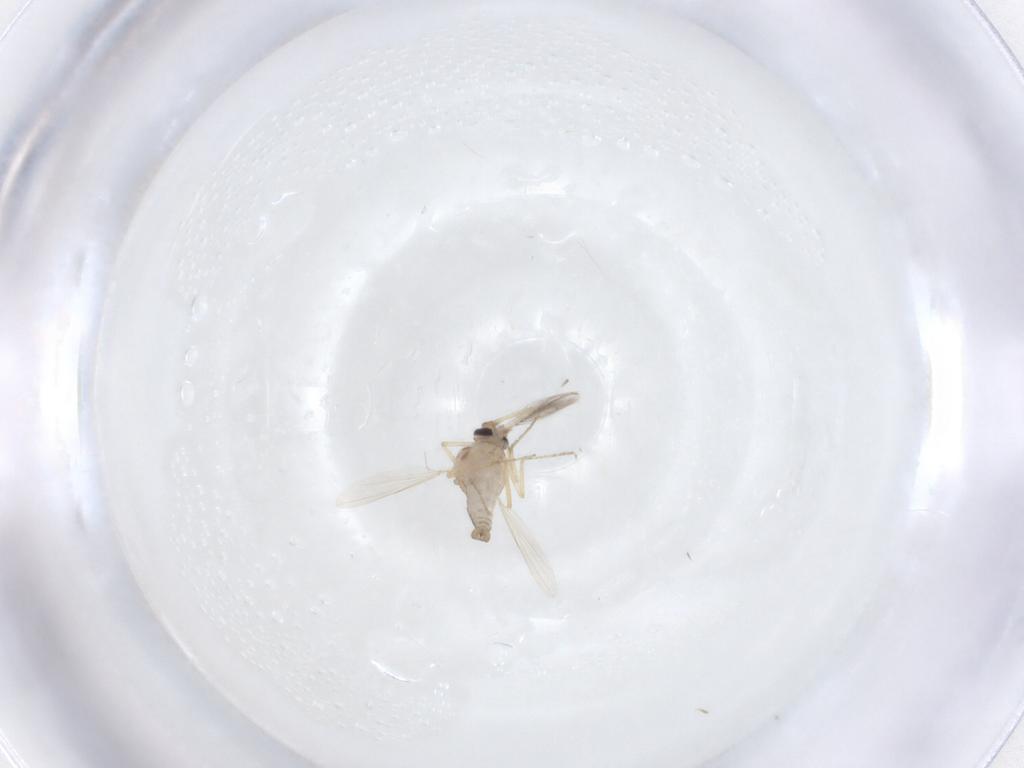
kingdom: Animalia
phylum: Arthropoda
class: Insecta
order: Diptera
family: Ceratopogonidae
